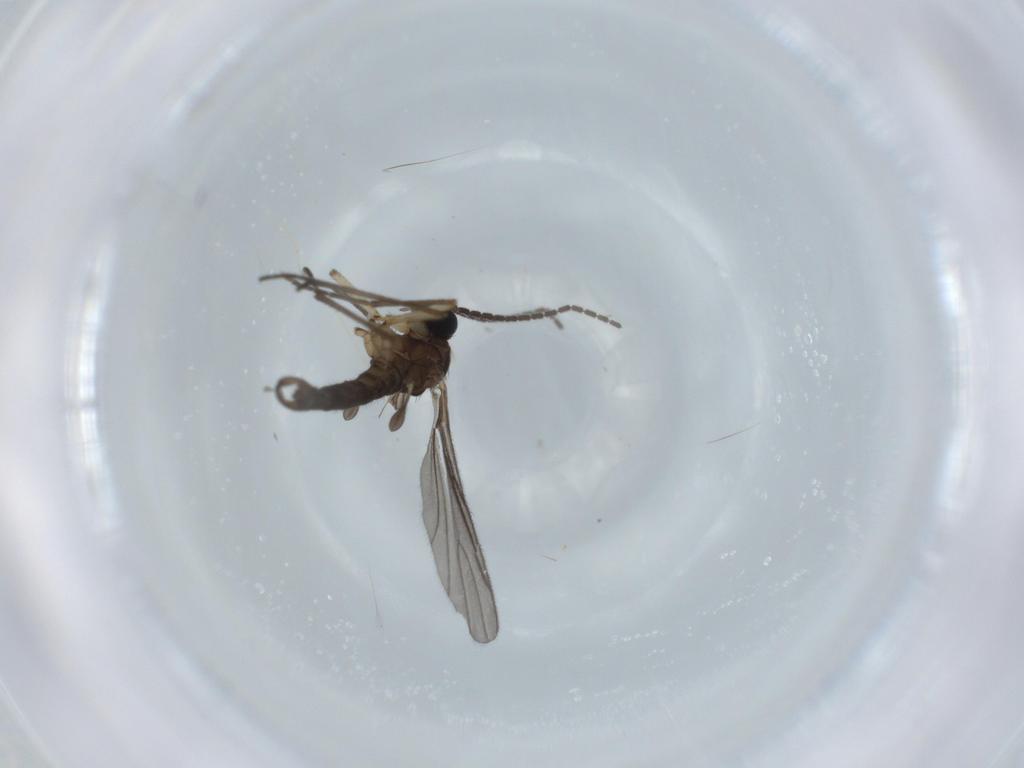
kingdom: Animalia
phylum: Arthropoda
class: Insecta
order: Diptera
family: Sciaridae
